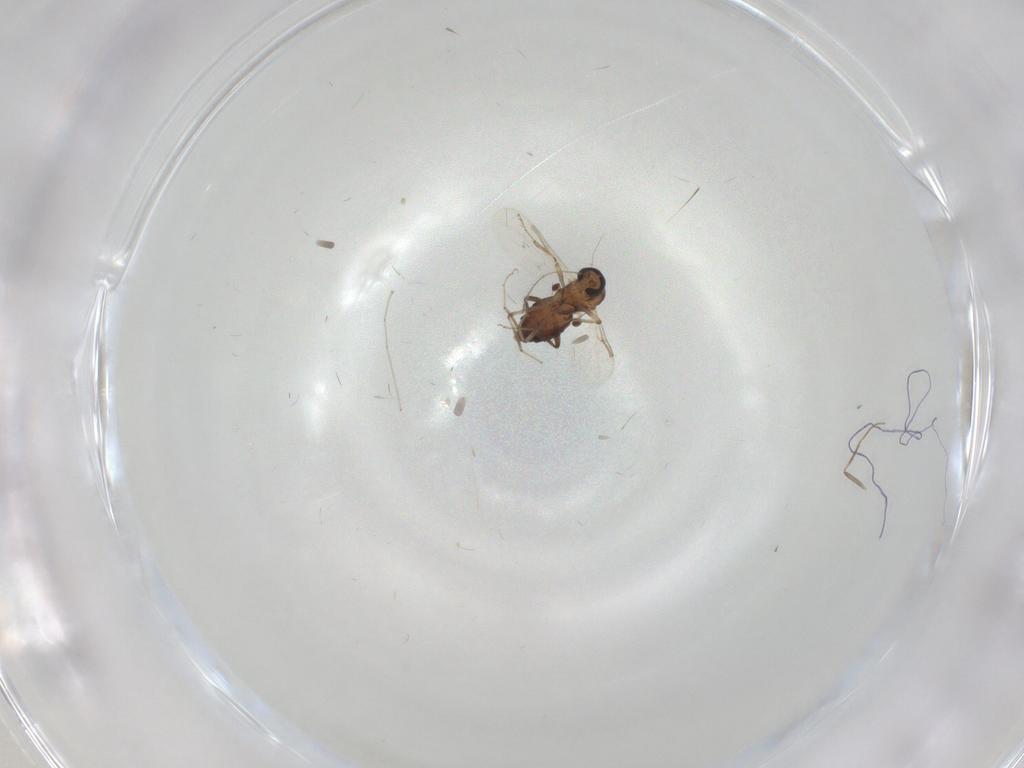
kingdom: Animalia
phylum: Arthropoda
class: Insecta
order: Diptera
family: Ceratopogonidae
